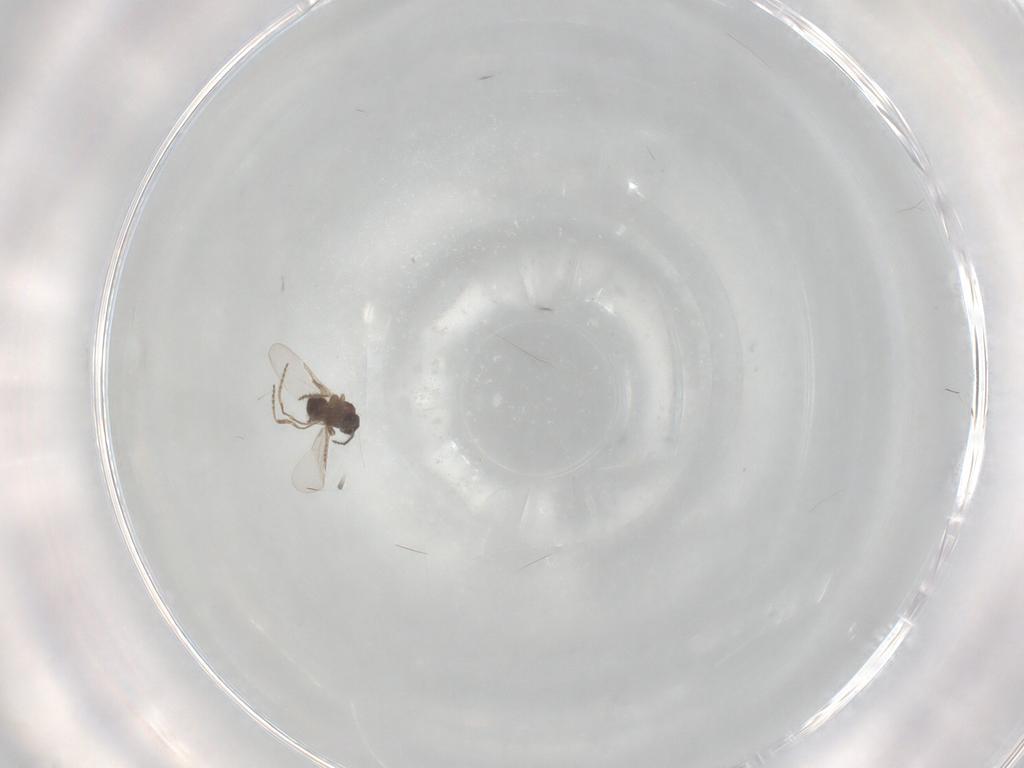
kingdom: Animalia
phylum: Arthropoda
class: Insecta
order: Diptera
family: Ceratopogonidae
